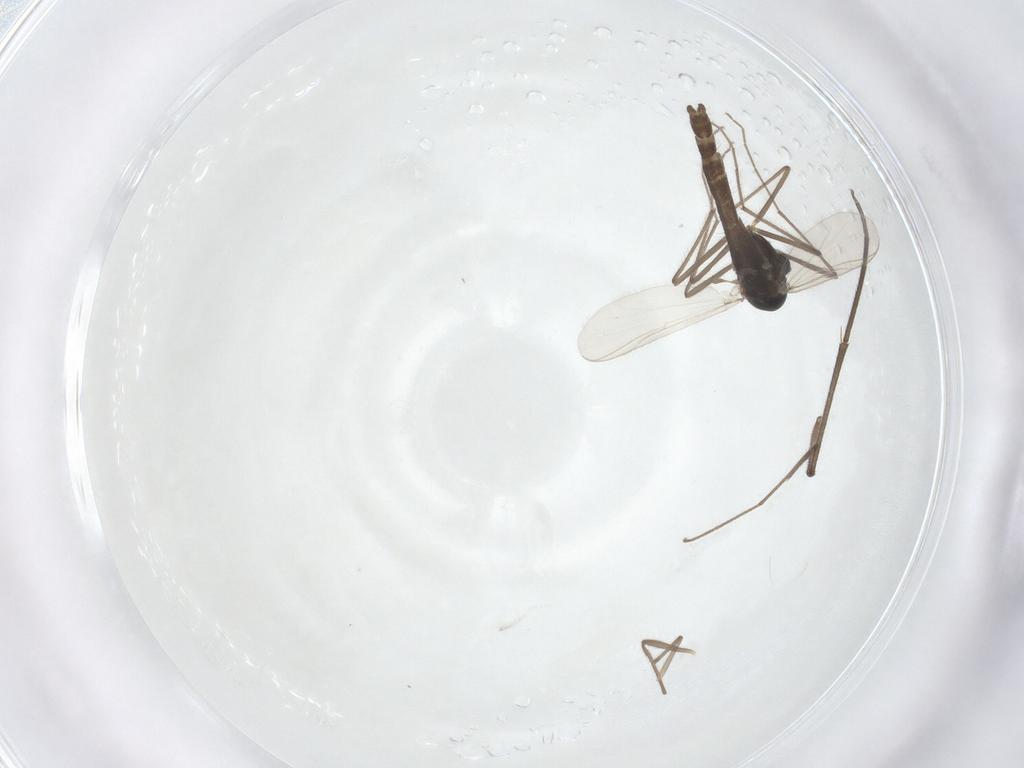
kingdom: Animalia
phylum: Arthropoda
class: Insecta
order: Diptera
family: Chironomidae
